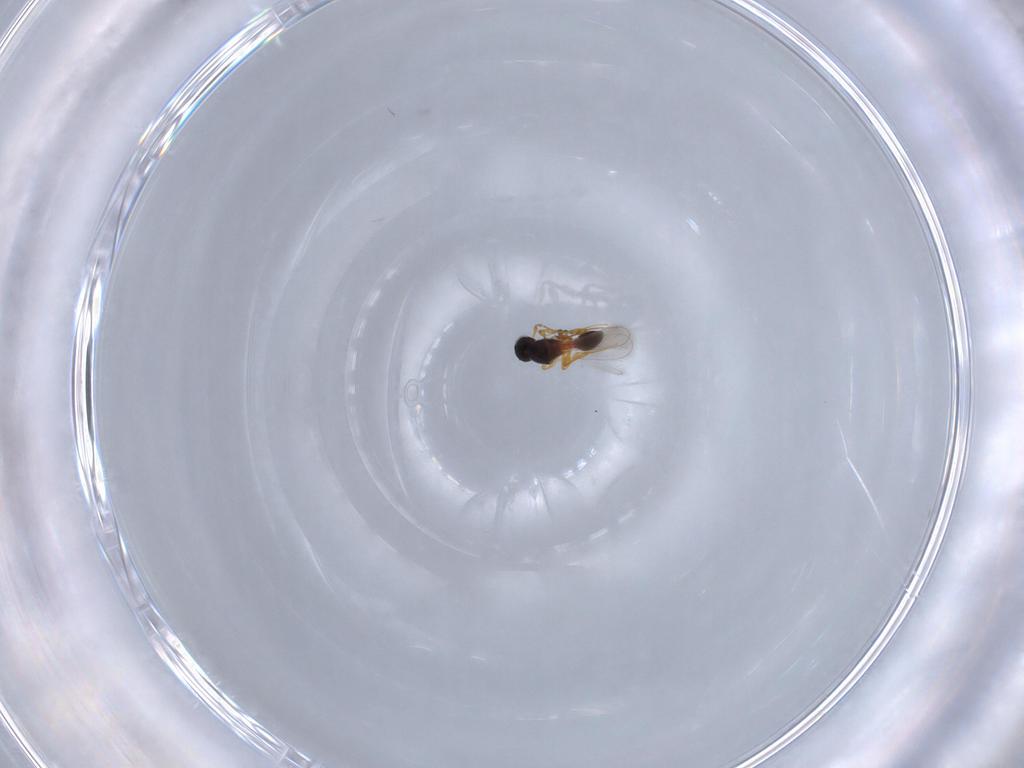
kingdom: Animalia
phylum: Arthropoda
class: Insecta
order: Hymenoptera
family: Platygastridae
